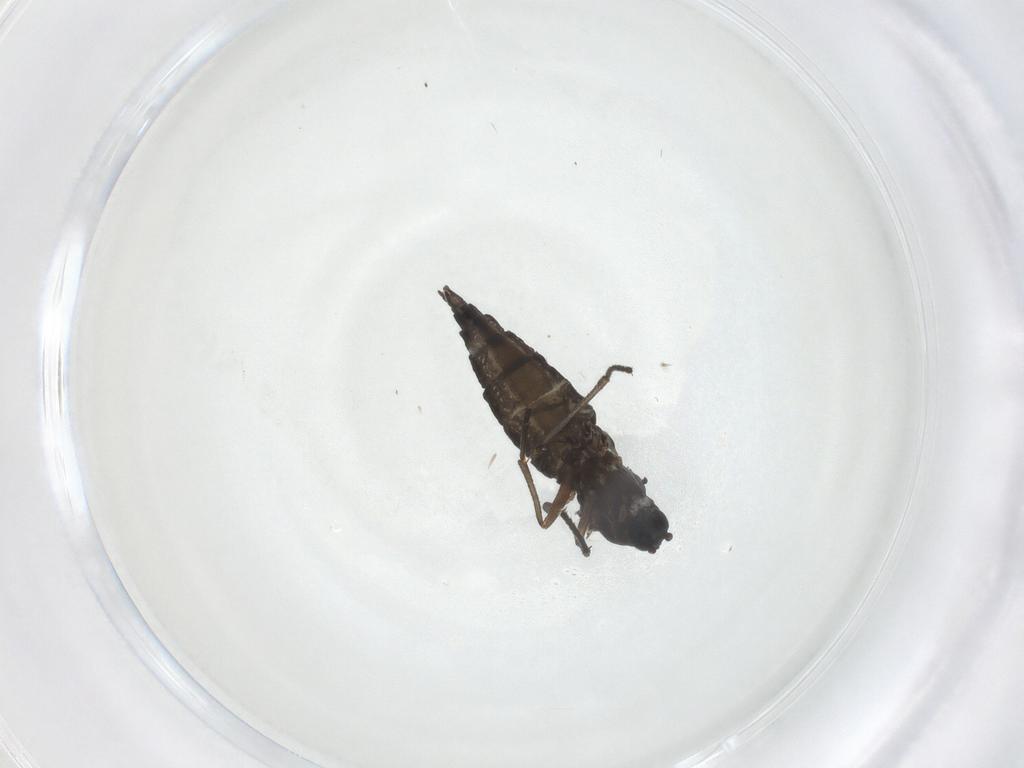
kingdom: Animalia
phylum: Arthropoda
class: Insecta
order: Diptera
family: Sciaridae
